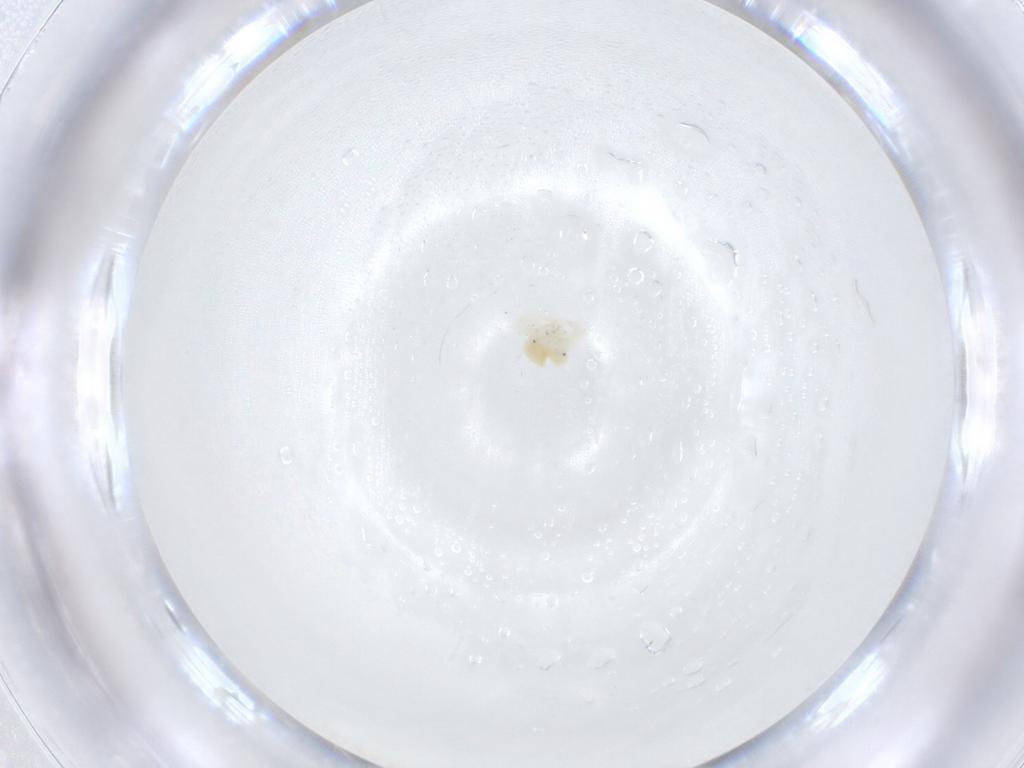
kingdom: Animalia
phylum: Arthropoda
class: Arachnida
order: Trombidiformes
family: Anystidae
